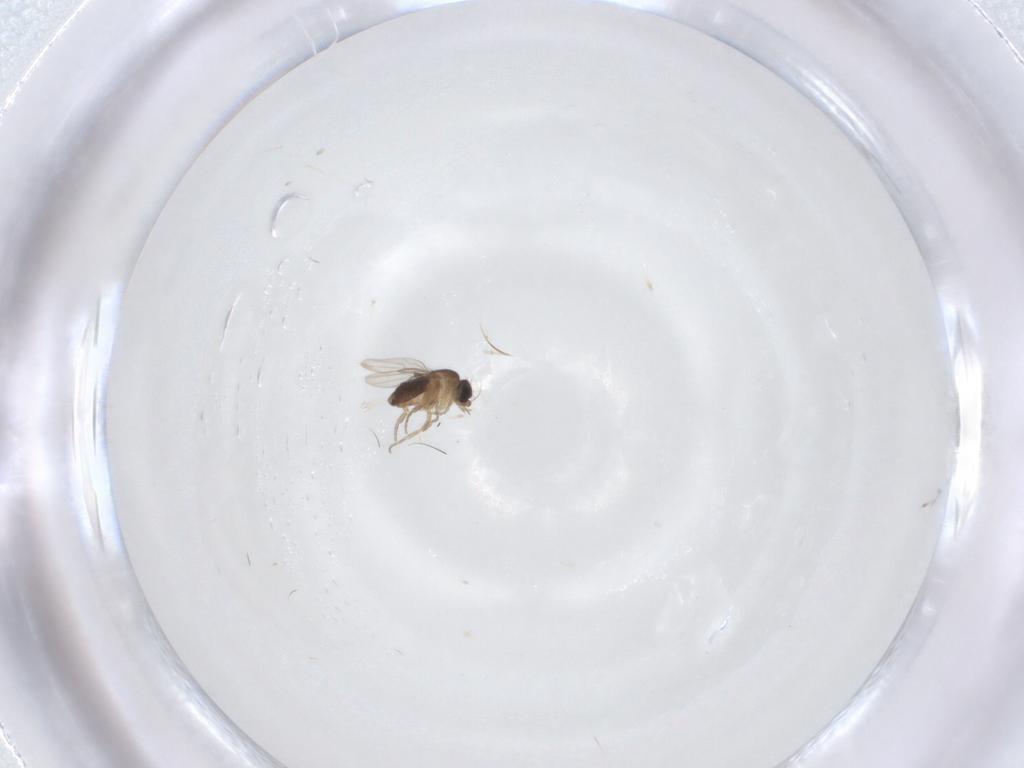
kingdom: Animalia
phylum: Arthropoda
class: Insecta
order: Diptera
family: Phoridae
